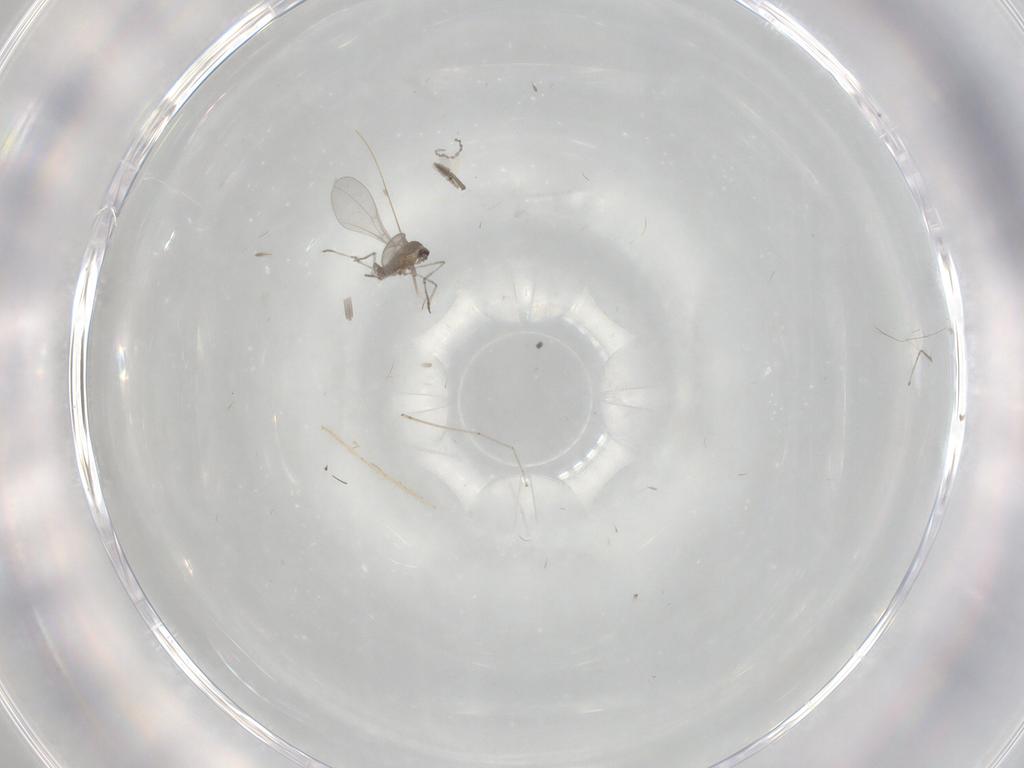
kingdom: Animalia
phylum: Arthropoda
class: Insecta
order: Diptera
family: Cecidomyiidae
